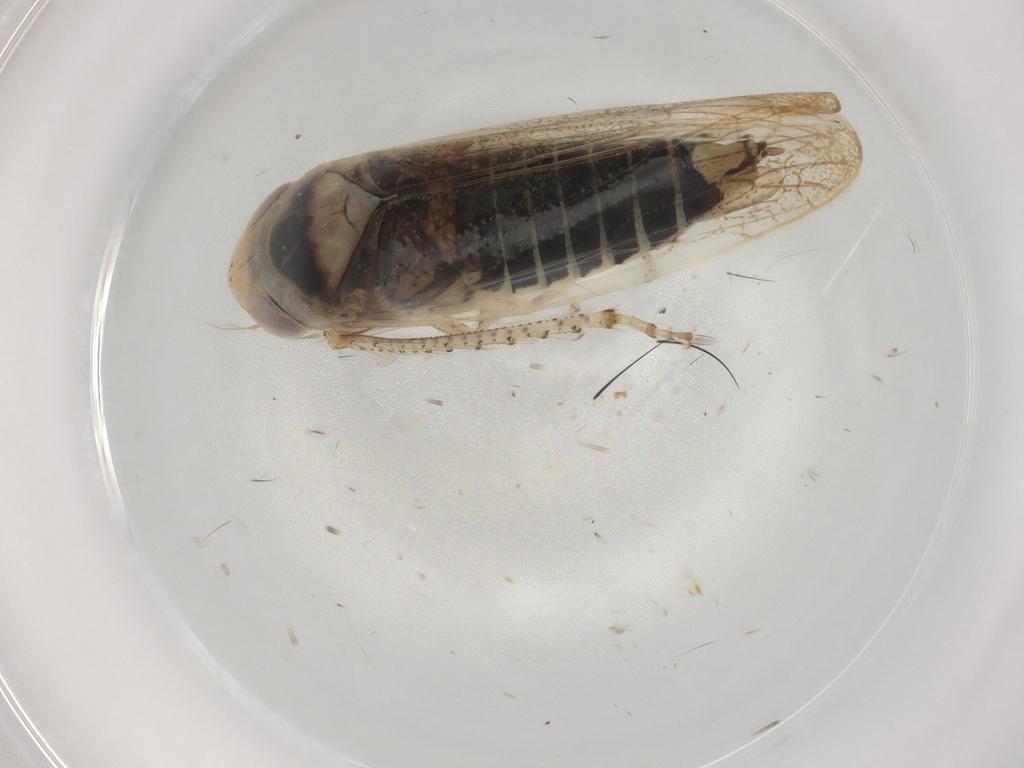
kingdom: Animalia
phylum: Arthropoda
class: Insecta
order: Hemiptera
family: Cicadellidae
